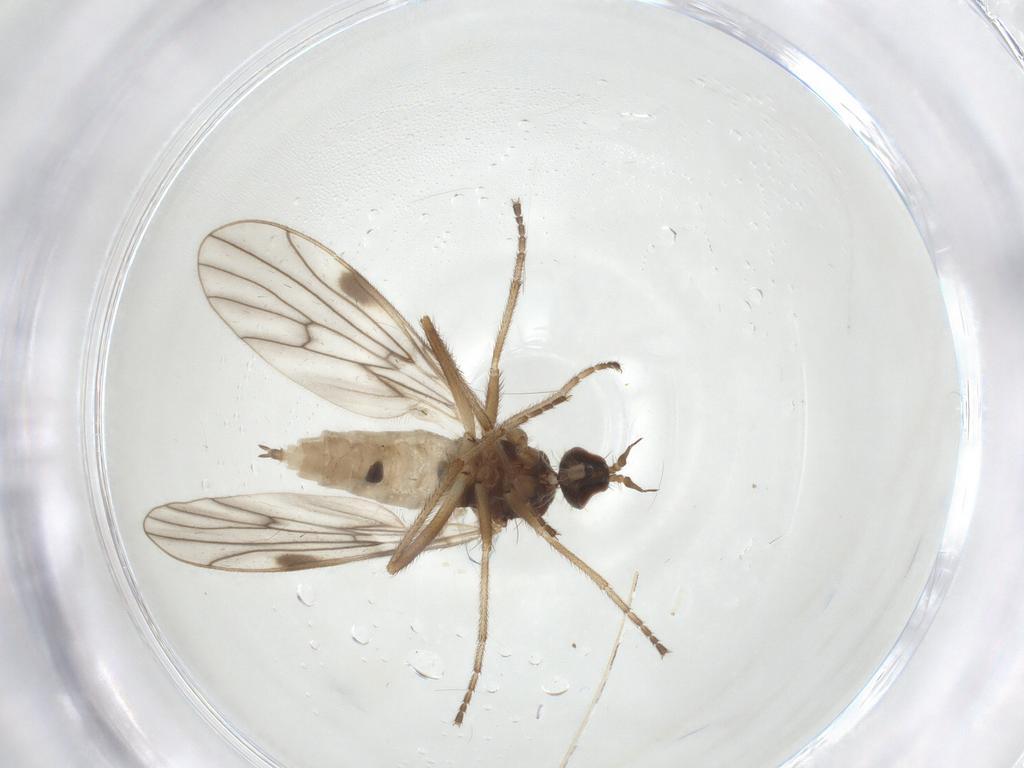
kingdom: Animalia
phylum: Arthropoda
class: Insecta
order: Diptera
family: Empididae
